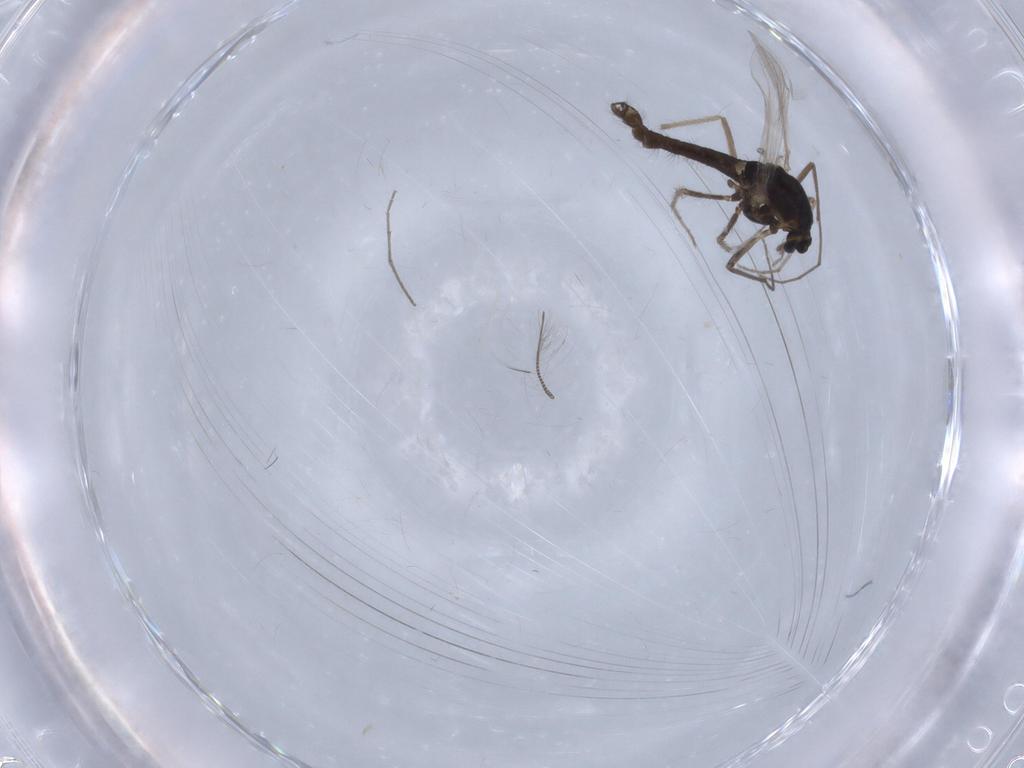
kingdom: Animalia
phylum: Arthropoda
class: Insecta
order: Diptera
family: Chironomidae
